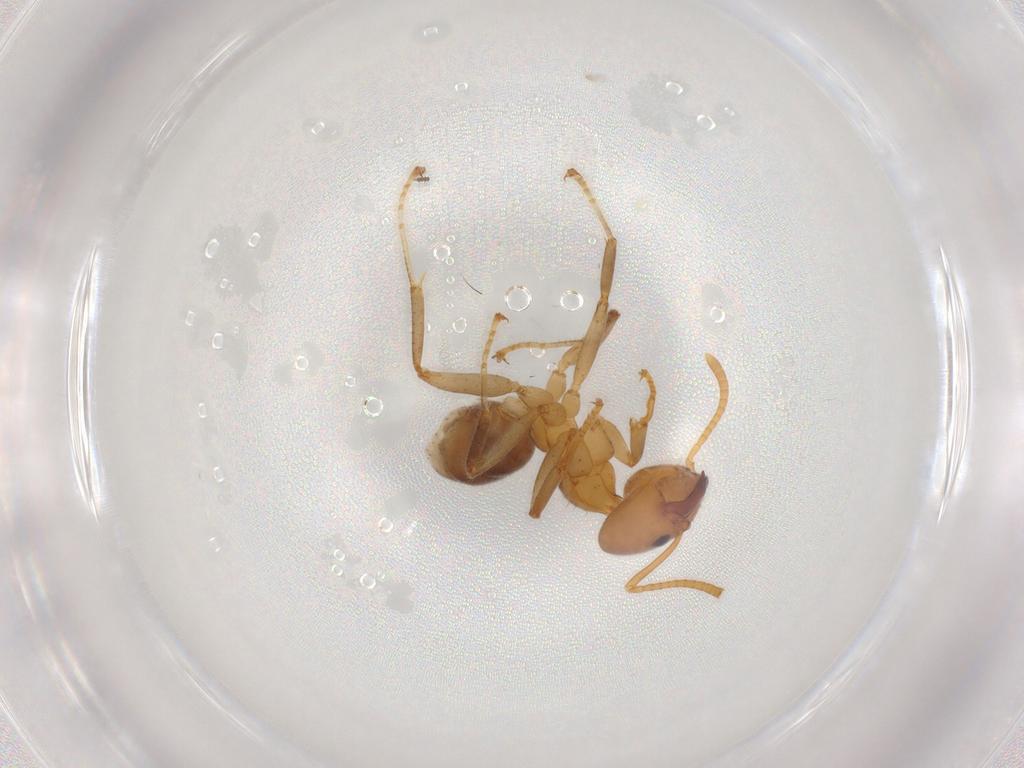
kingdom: Animalia
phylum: Arthropoda
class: Insecta
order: Hymenoptera
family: Formicidae
